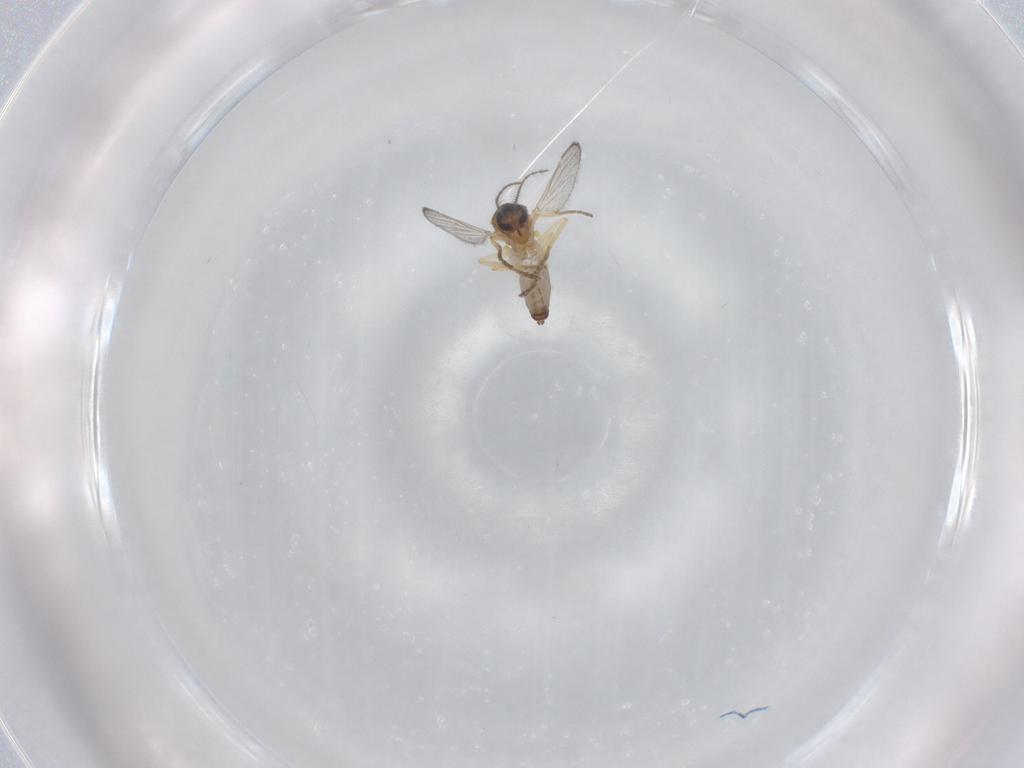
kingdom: Animalia
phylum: Arthropoda
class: Insecta
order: Diptera
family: Ceratopogonidae
